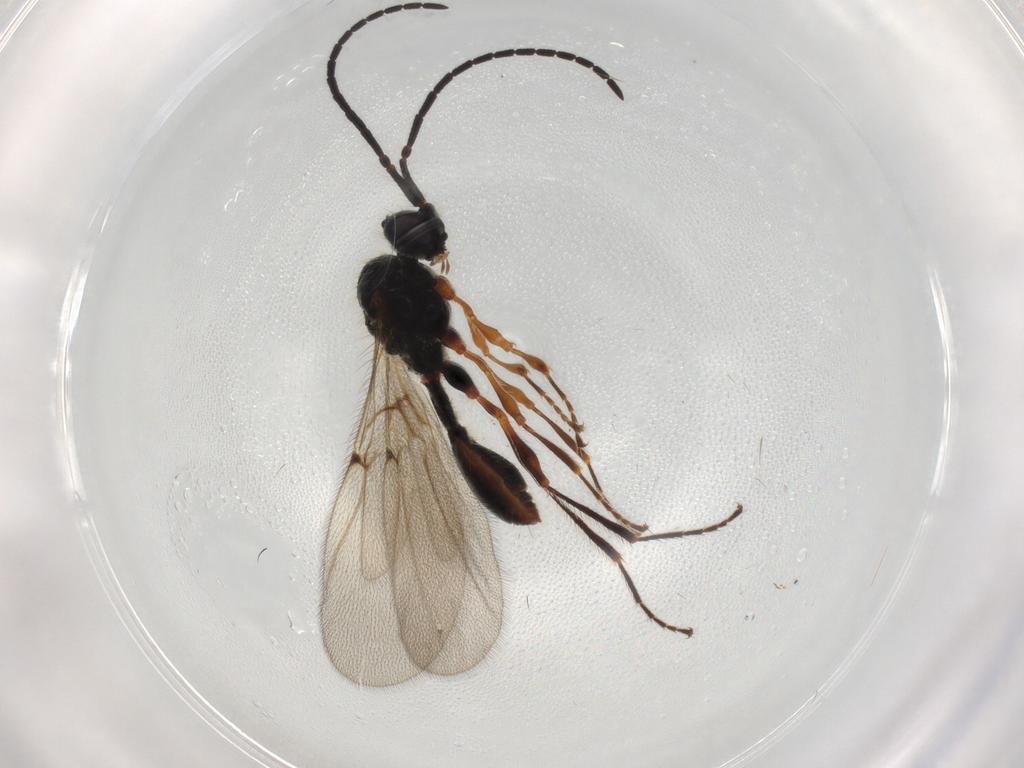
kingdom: Animalia
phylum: Arthropoda
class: Insecta
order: Hymenoptera
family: Diapriidae
